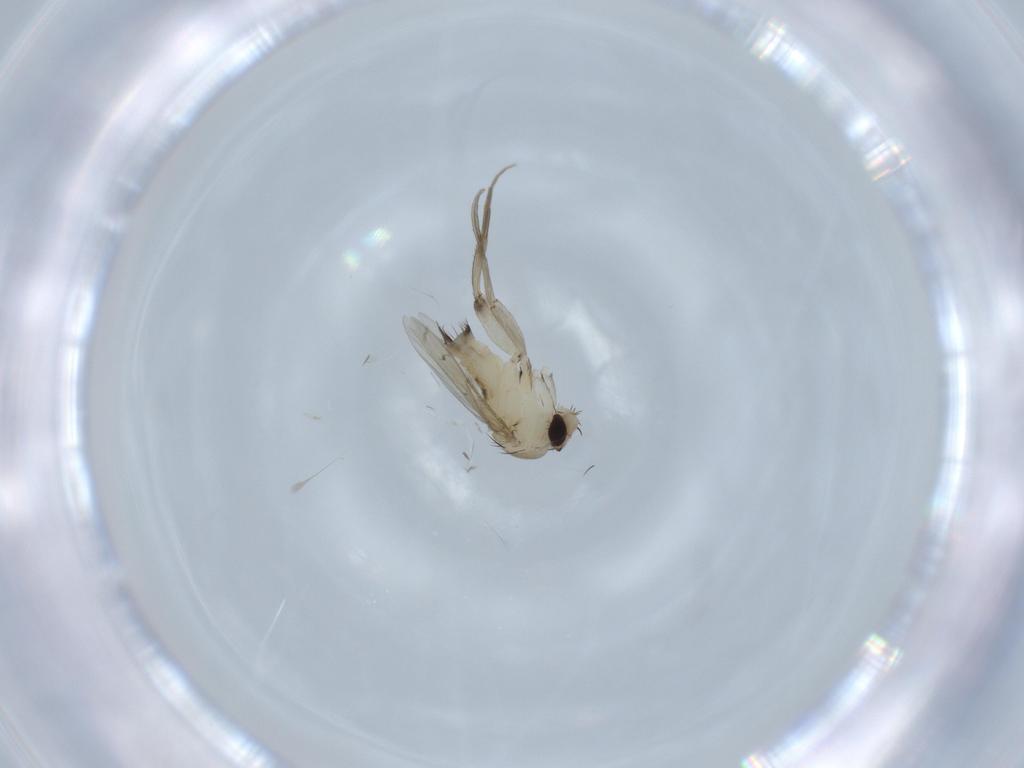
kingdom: Animalia
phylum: Arthropoda
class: Insecta
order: Diptera
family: Phoridae
